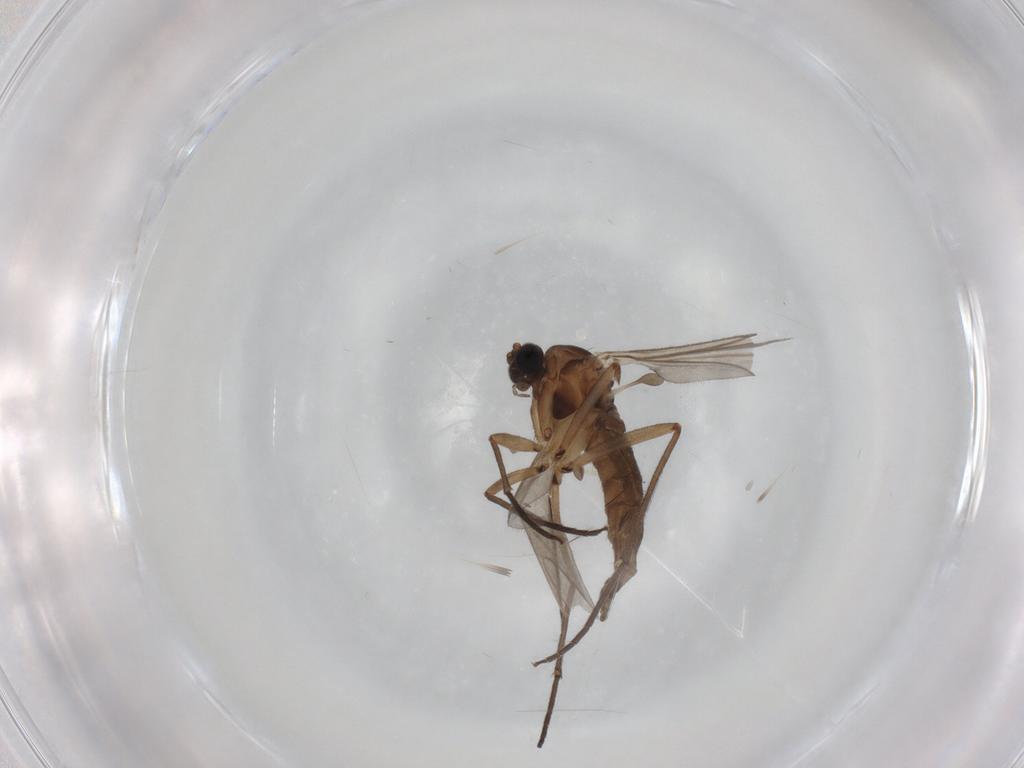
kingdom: Animalia
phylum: Arthropoda
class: Insecta
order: Diptera
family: Sciaridae
